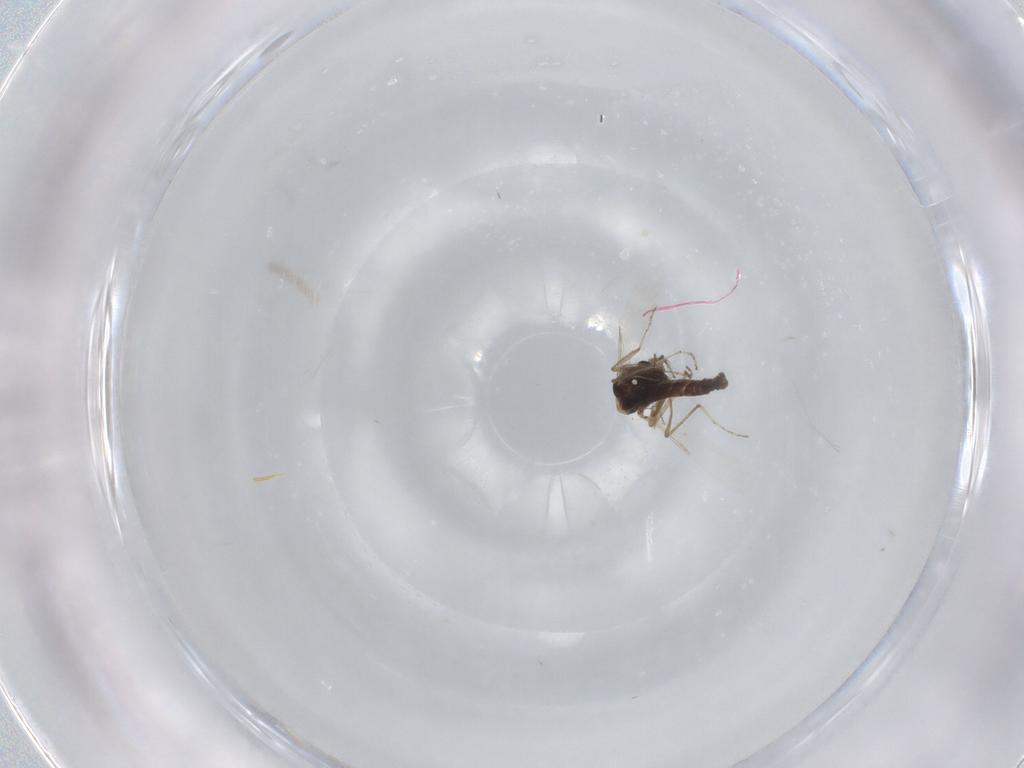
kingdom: Animalia
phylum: Arthropoda
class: Insecta
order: Diptera
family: Ceratopogonidae
